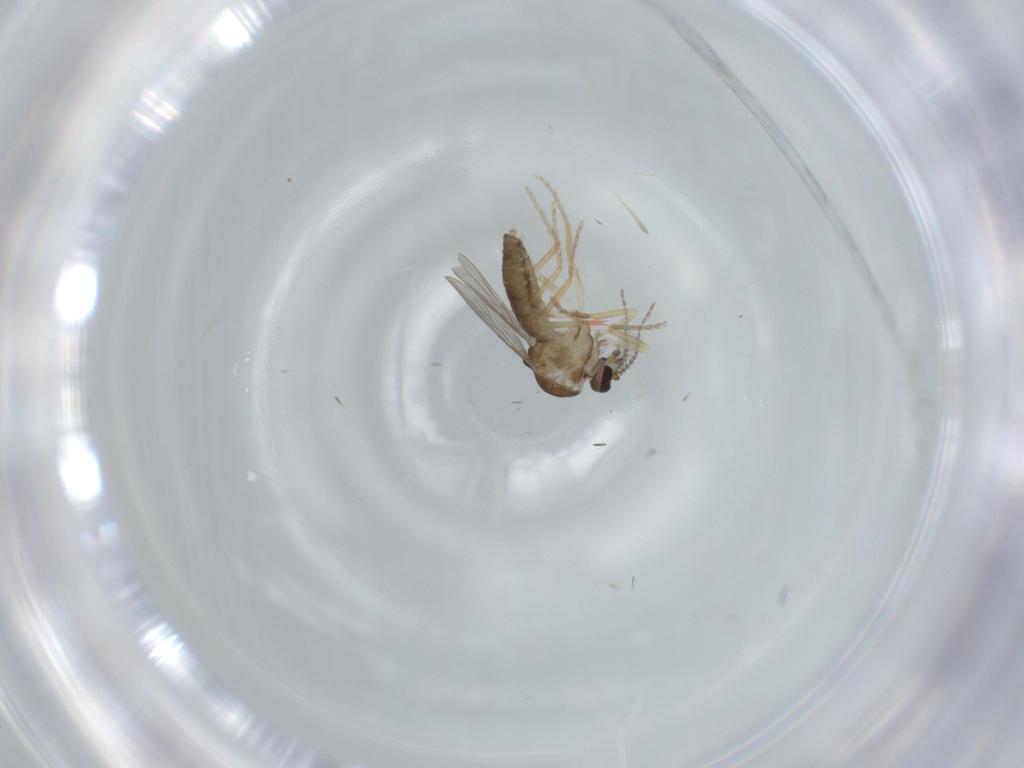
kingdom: Animalia
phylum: Arthropoda
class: Insecta
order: Diptera
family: Ceratopogonidae
